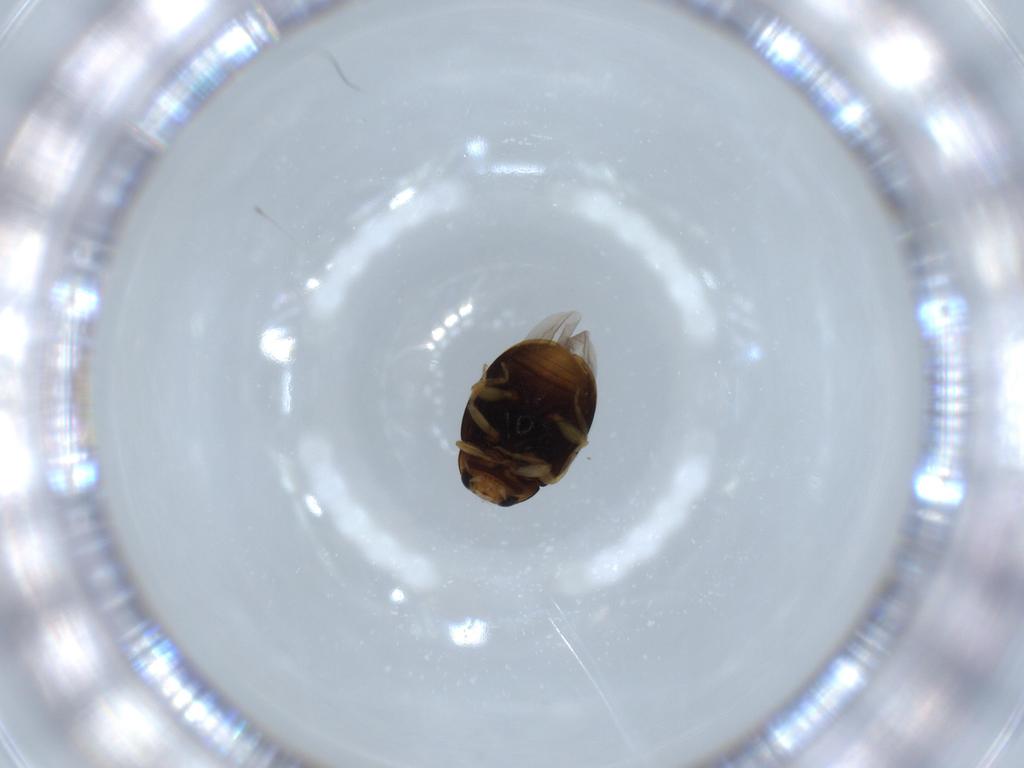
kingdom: Animalia
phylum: Arthropoda
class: Insecta
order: Coleoptera
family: Coccinellidae
